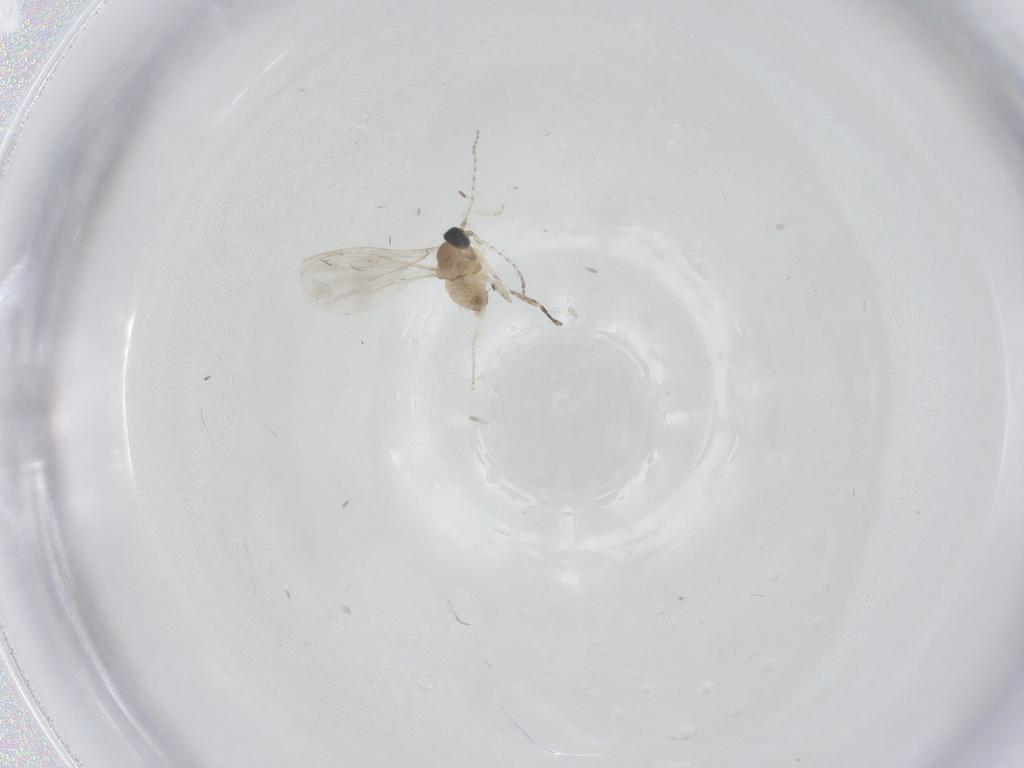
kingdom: Animalia
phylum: Arthropoda
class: Insecta
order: Diptera
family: Cecidomyiidae
